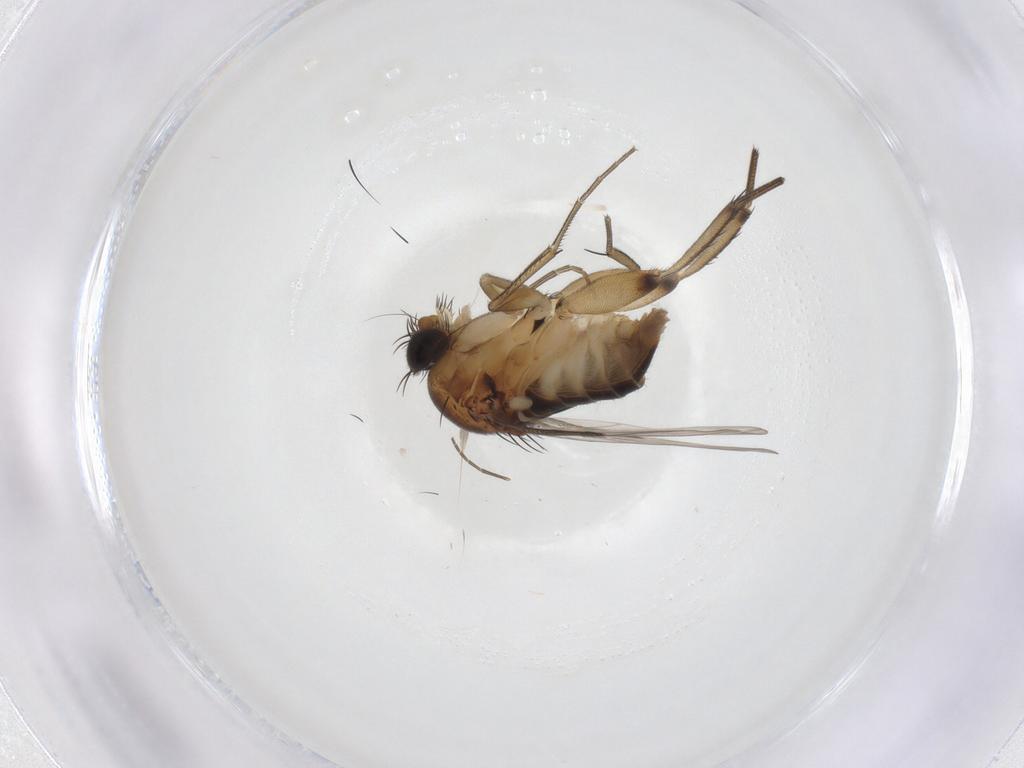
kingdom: Animalia
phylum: Arthropoda
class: Insecta
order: Diptera
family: Phoridae
